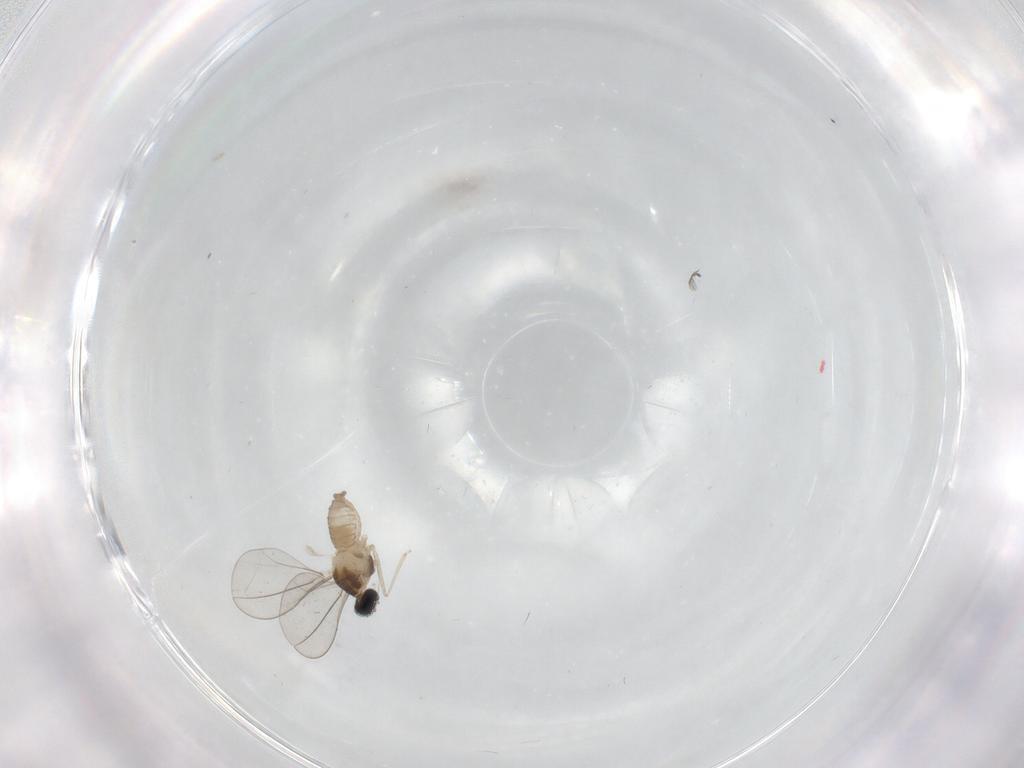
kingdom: Animalia
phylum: Arthropoda
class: Insecta
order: Diptera
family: Cecidomyiidae
